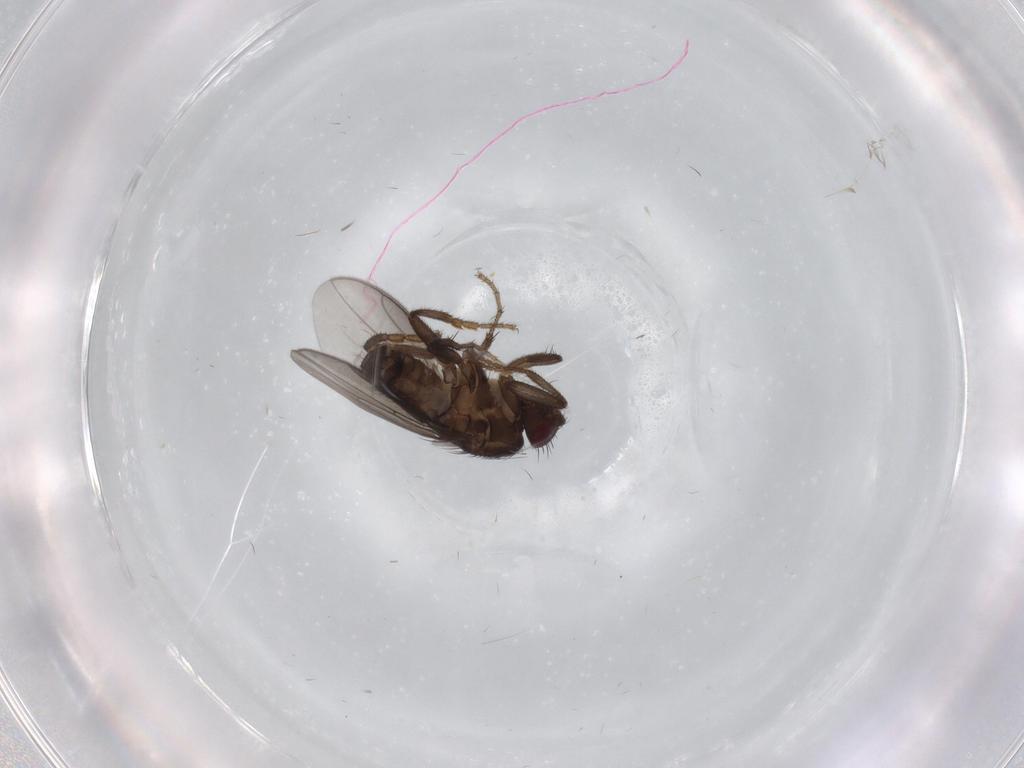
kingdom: Animalia
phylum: Arthropoda
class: Insecta
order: Diptera
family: Sphaeroceridae
